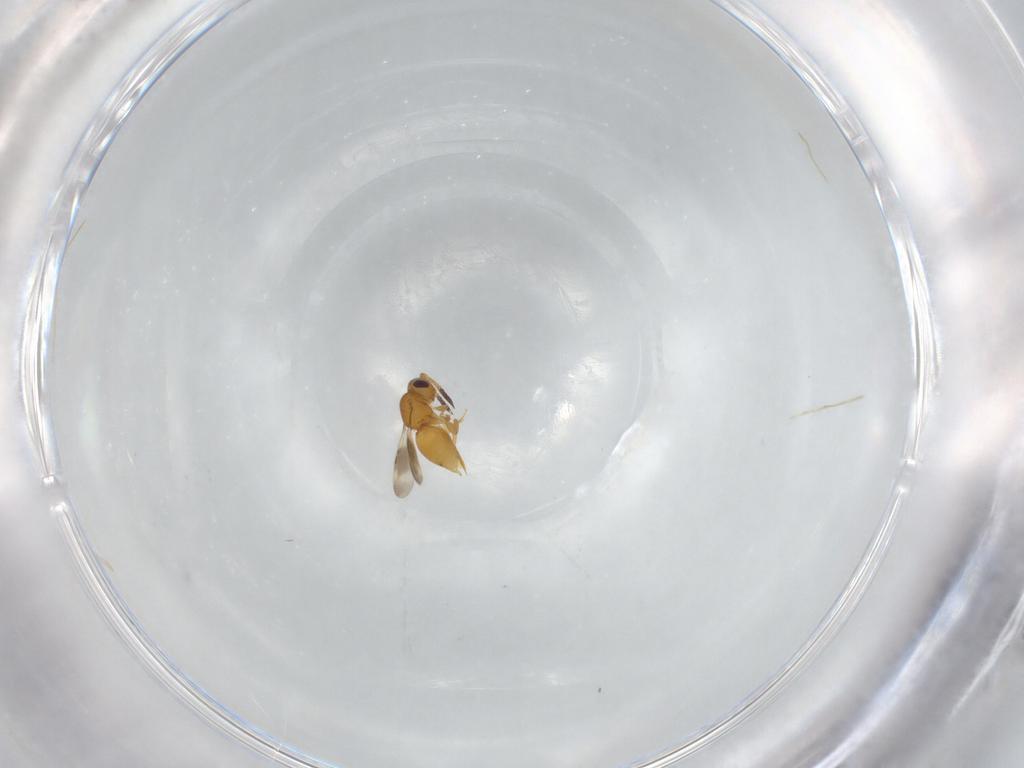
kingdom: Animalia
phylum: Arthropoda
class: Insecta
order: Hymenoptera
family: Ceraphronidae
